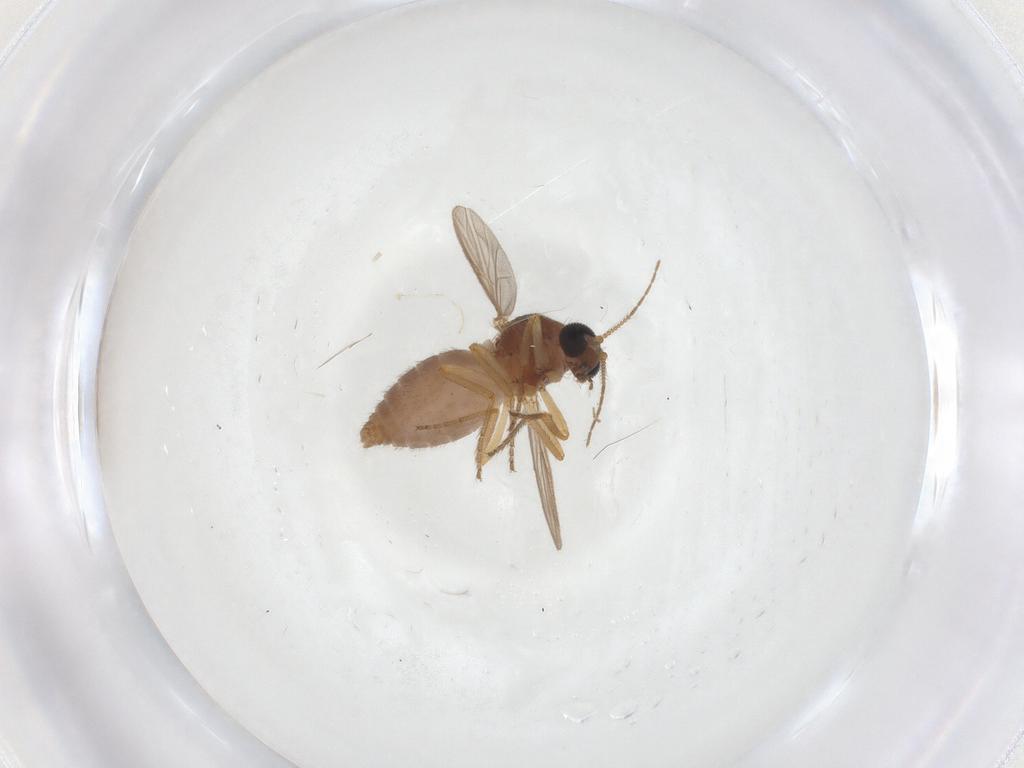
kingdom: Animalia
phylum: Arthropoda
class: Insecta
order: Diptera
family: Ceratopogonidae
